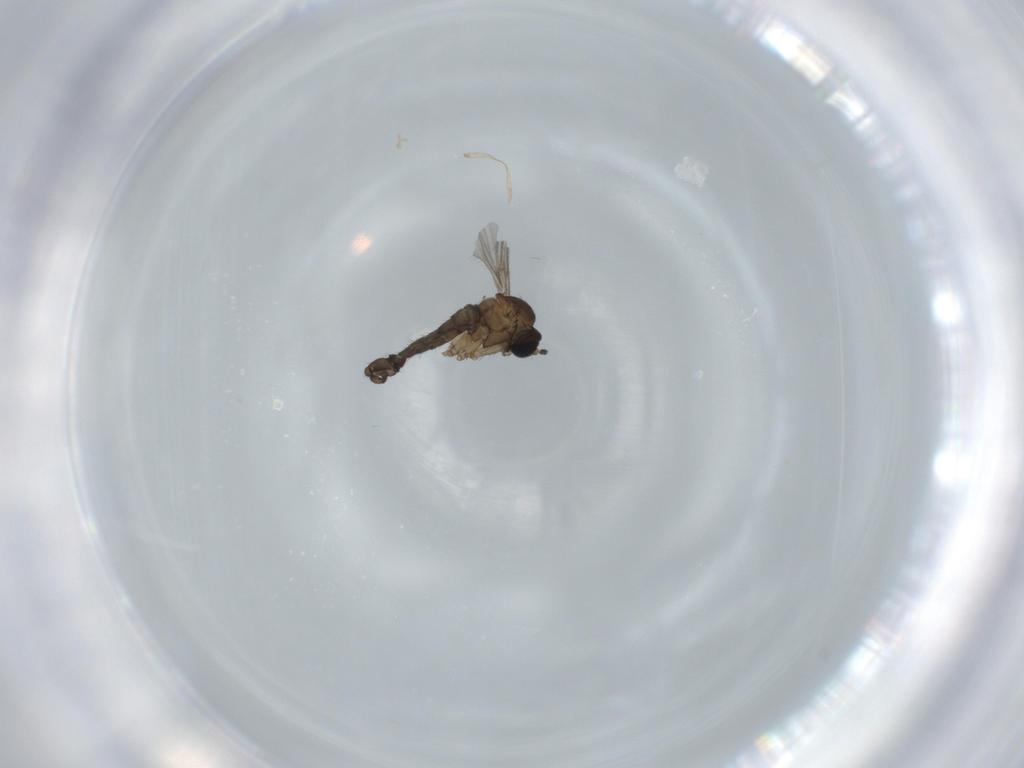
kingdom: Animalia
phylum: Arthropoda
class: Insecta
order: Diptera
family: Sciaridae
